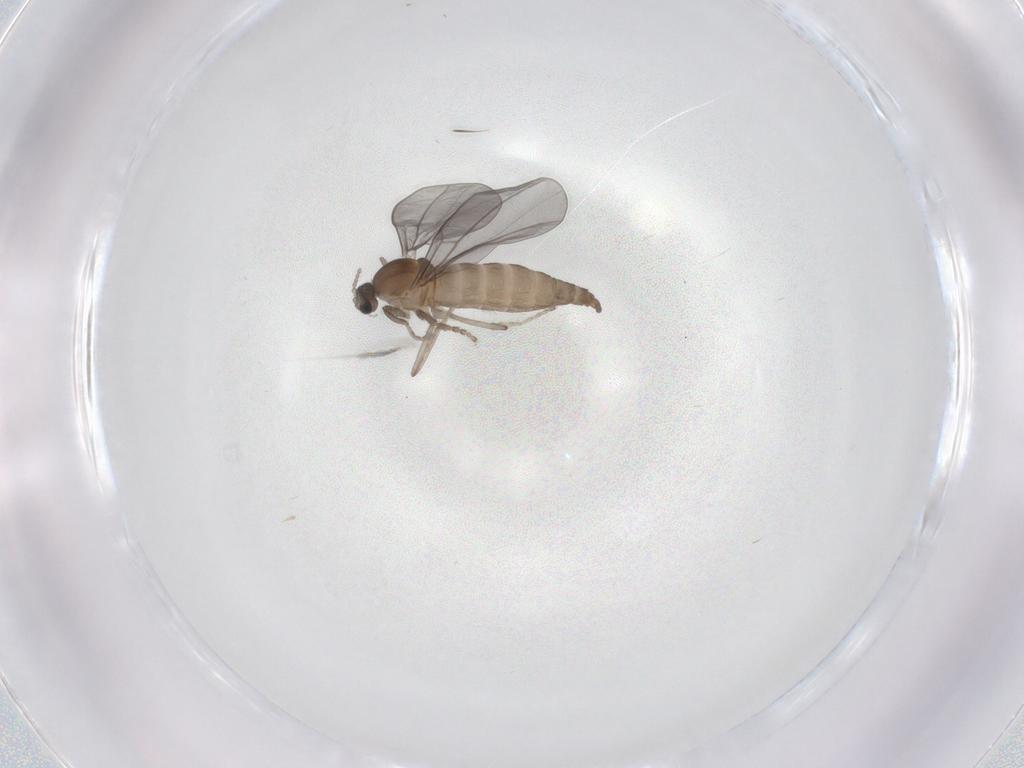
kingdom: Animalia
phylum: Arthropoda
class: Insecta
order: Diptera
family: Cecidomyiidae
